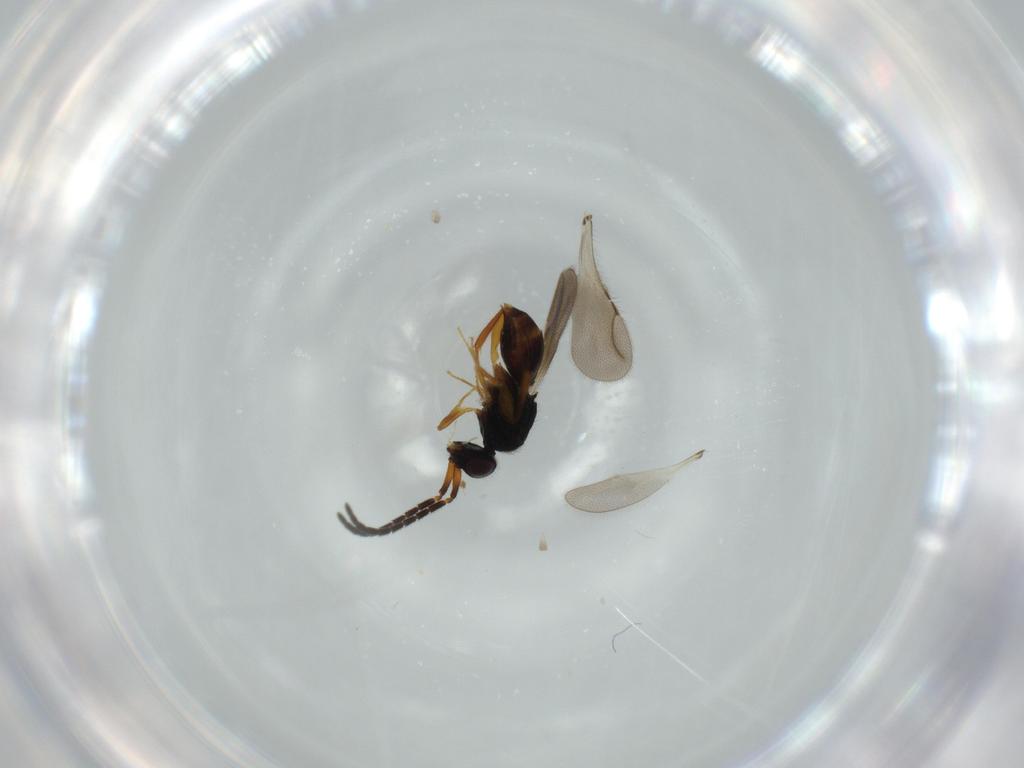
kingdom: Animalia
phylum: Arthropoda
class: Insecta
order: Hymenoptera
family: Ceraphronidae
